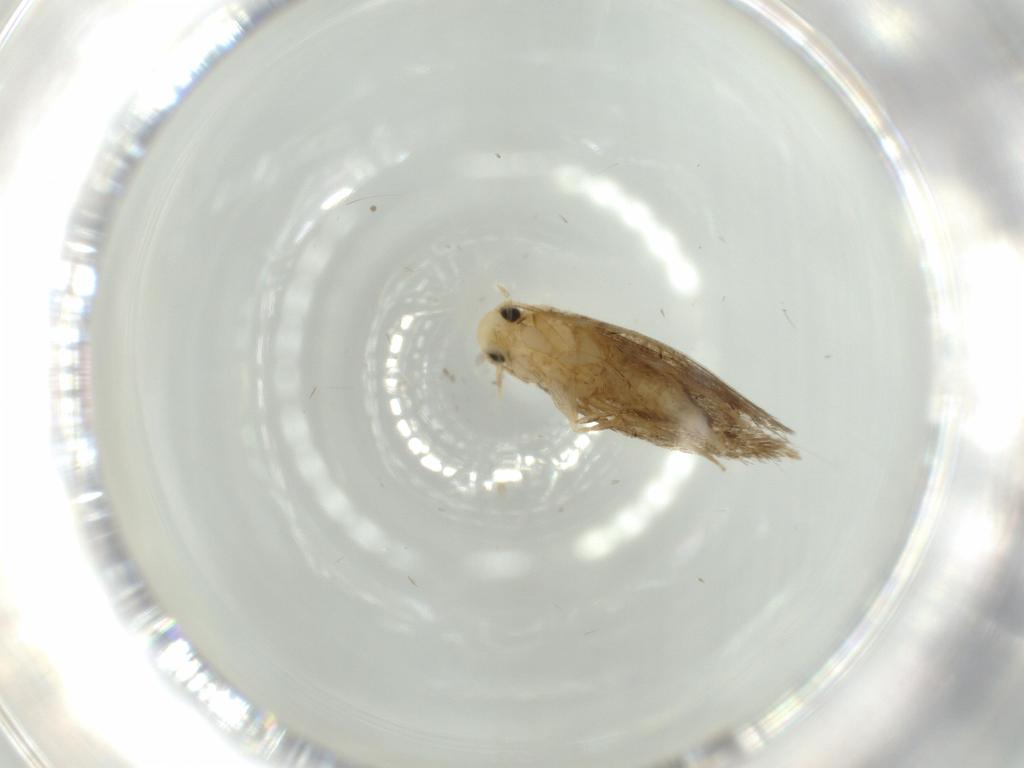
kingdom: Animalia
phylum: Arthropoda
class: Insecta
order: Lepidoptera
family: Tineidae
